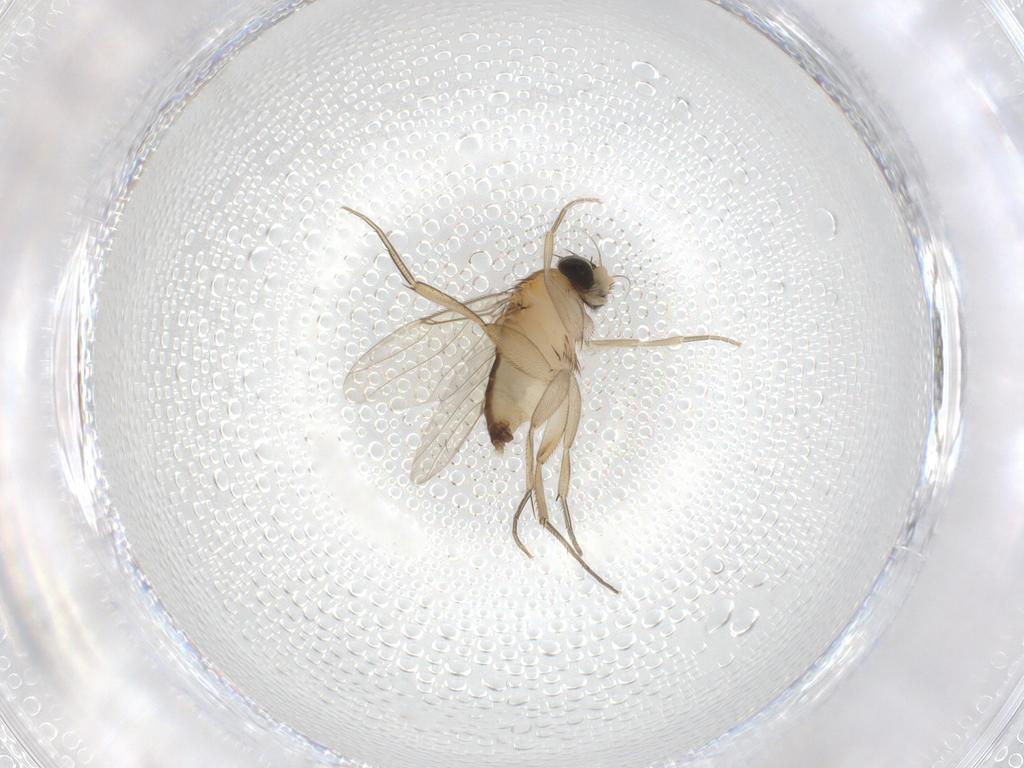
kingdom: Animalia
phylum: Arthropoda
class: Insecta
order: Diptera
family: Phoridae
